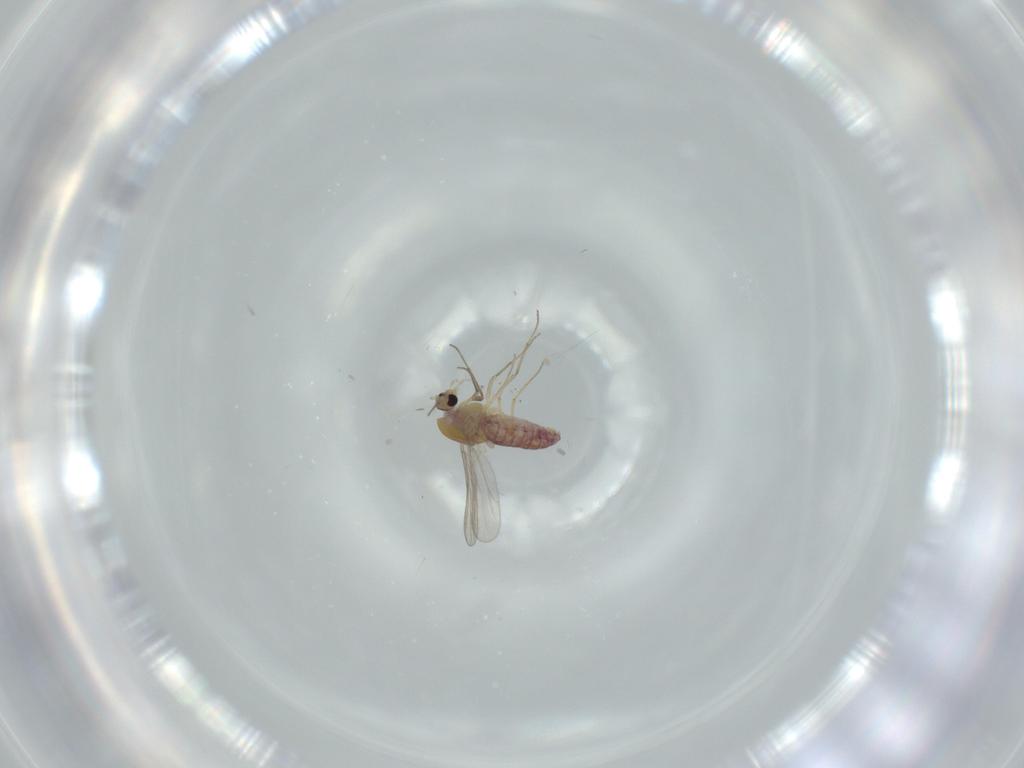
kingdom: Animalia
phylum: Arthropoda
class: Insecta
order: Diptera
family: Chironomidae
